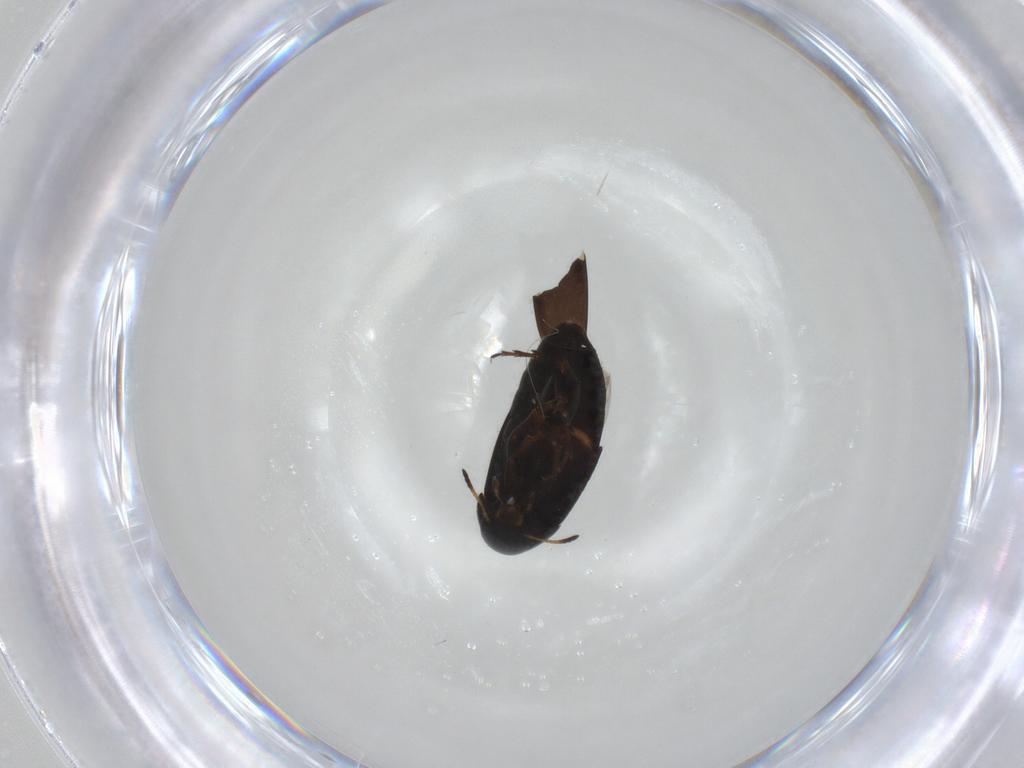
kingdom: Animalia
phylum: Arthropoda
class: Insecta
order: Coleoptera
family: Scraptiidae
